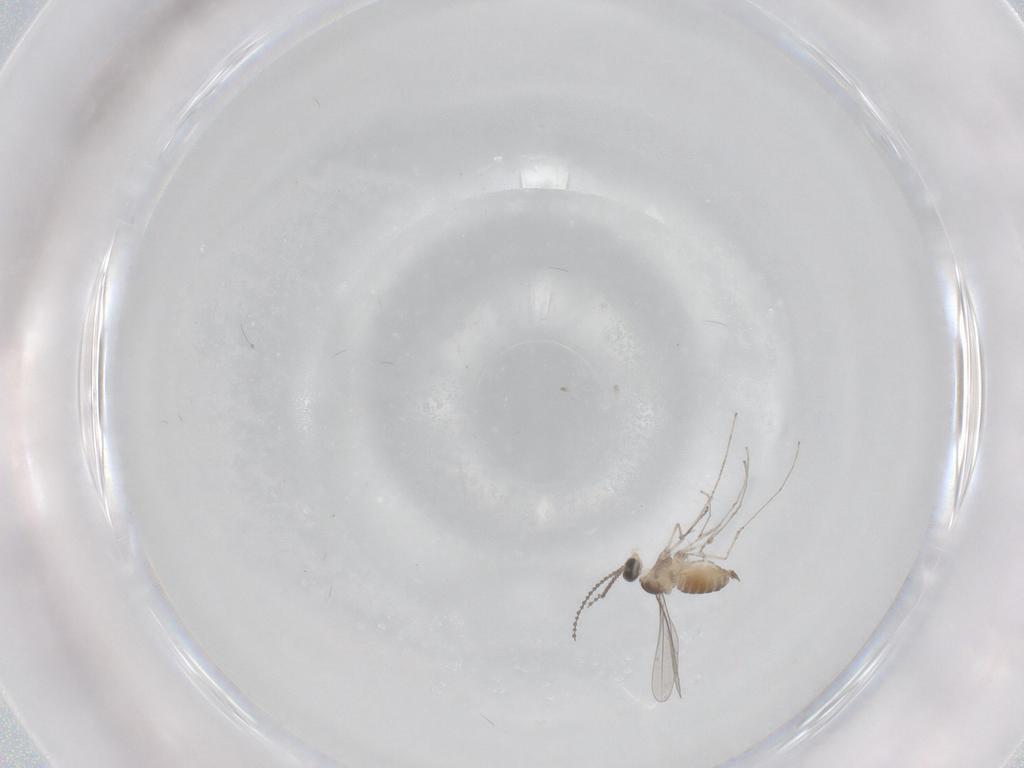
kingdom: Animalia
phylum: Arthropoda
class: Insecta
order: Diptera
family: Cecidomyiidae
